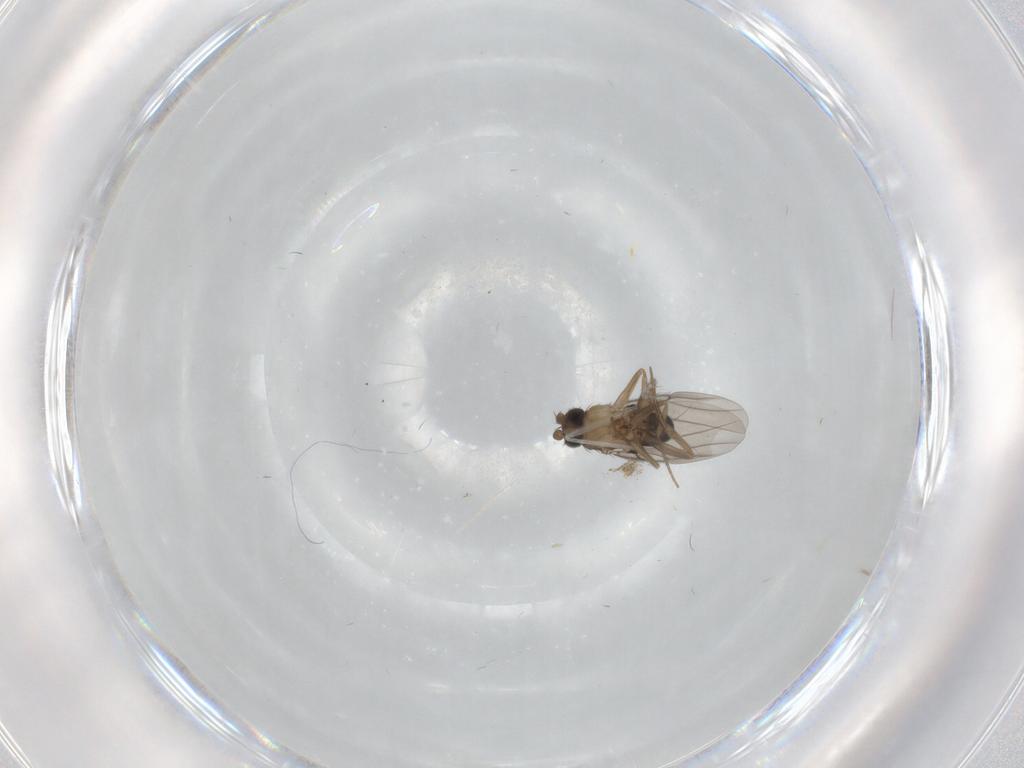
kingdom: Animalia
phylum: Arthropoda
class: Insecta
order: Diptera
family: Cecidomyiidae
